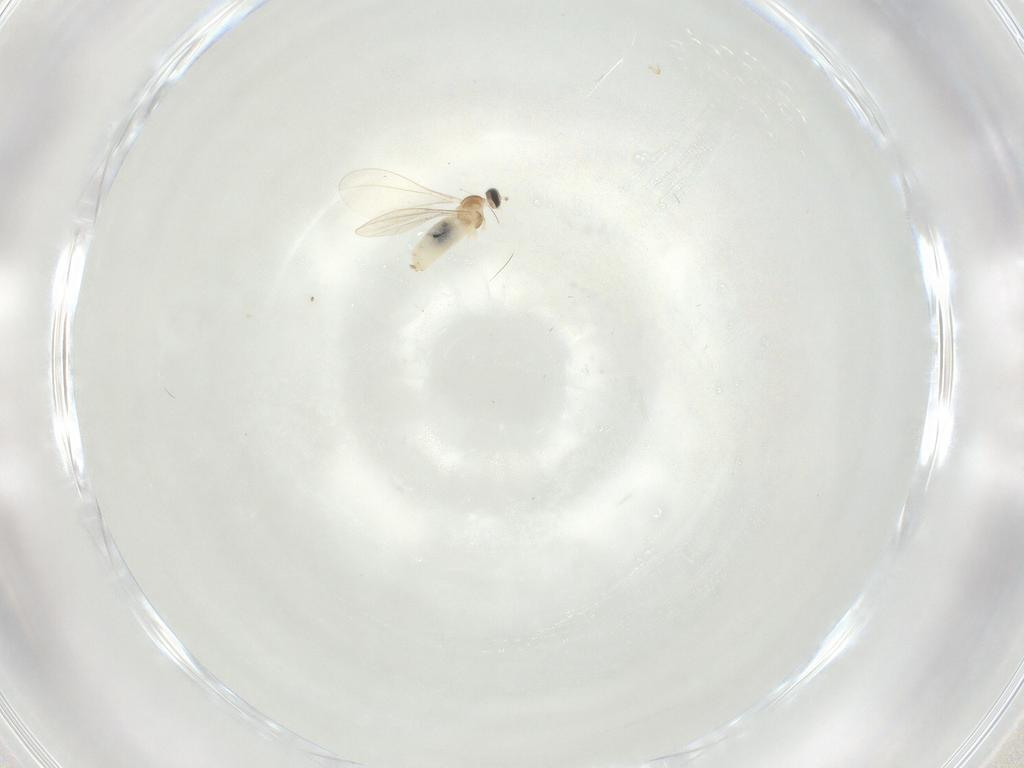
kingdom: Animalia
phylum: Arthropoda
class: Insecta
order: Diptera
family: Cecidomyiidae
